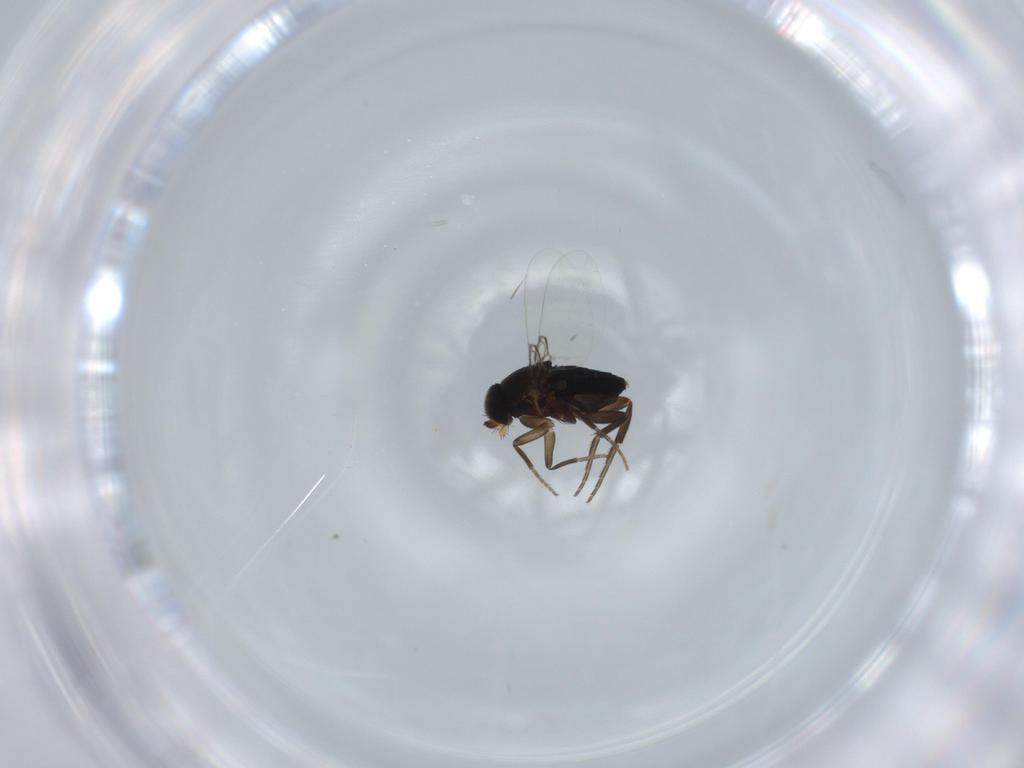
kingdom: Animalia
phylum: Arthropoda
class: Insecta
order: Diptera
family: Phoridae
